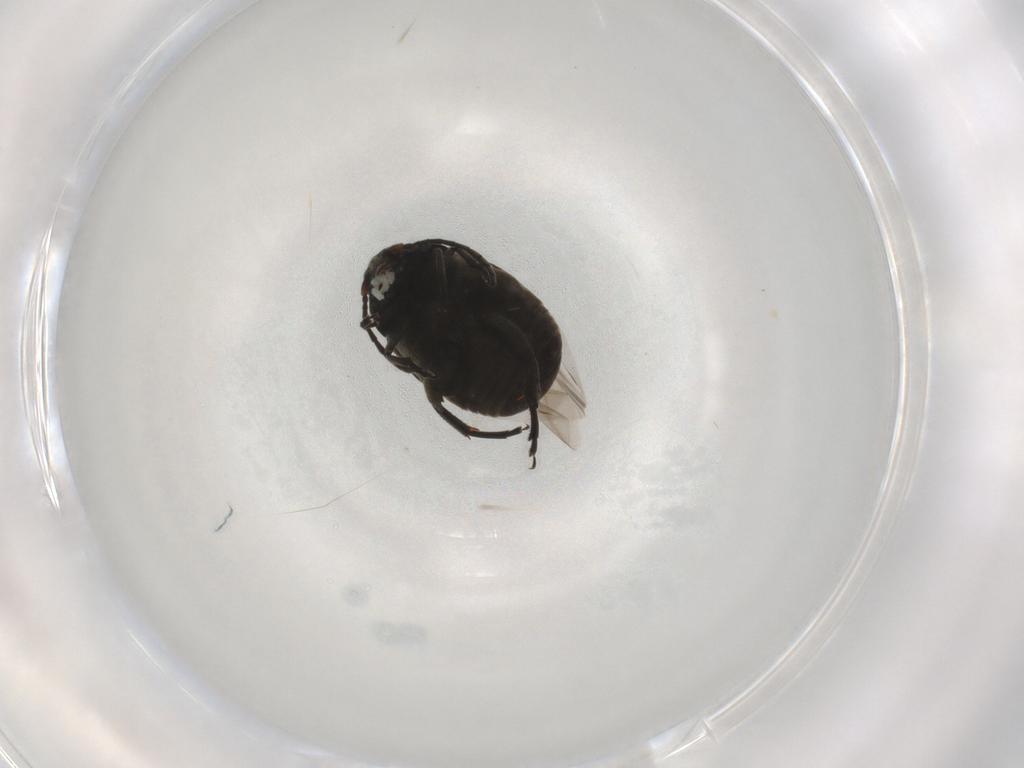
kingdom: Animalia
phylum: Arthropoda
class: Insecta
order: Coleoptera
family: Chrysomelidae
